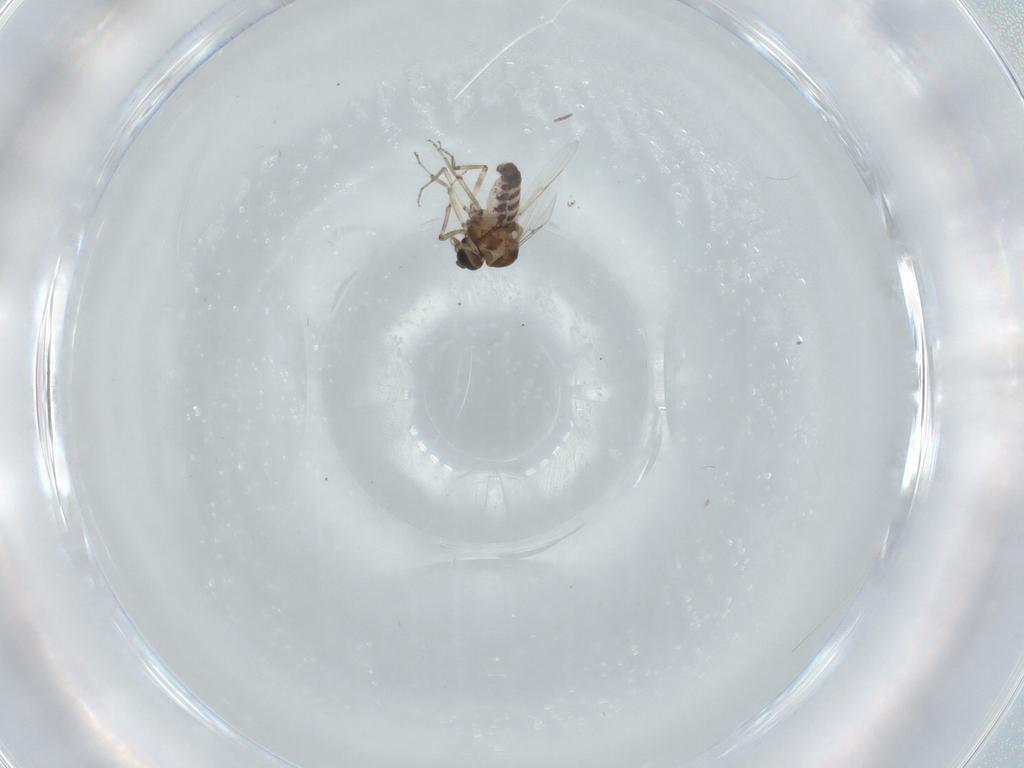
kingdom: Animalia
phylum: Arthropoda
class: Insecta
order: Diptera
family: Ceratopogonidae
